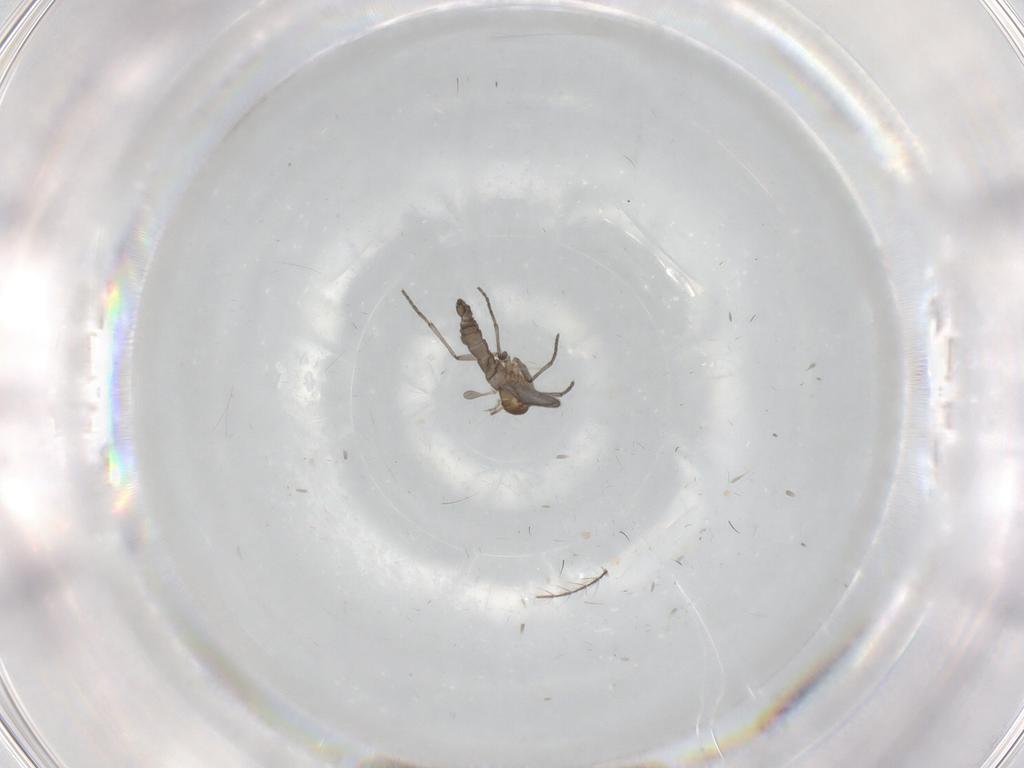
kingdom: Animalia
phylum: Arthropoda
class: Insecta
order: Diptera
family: Sciaridae
